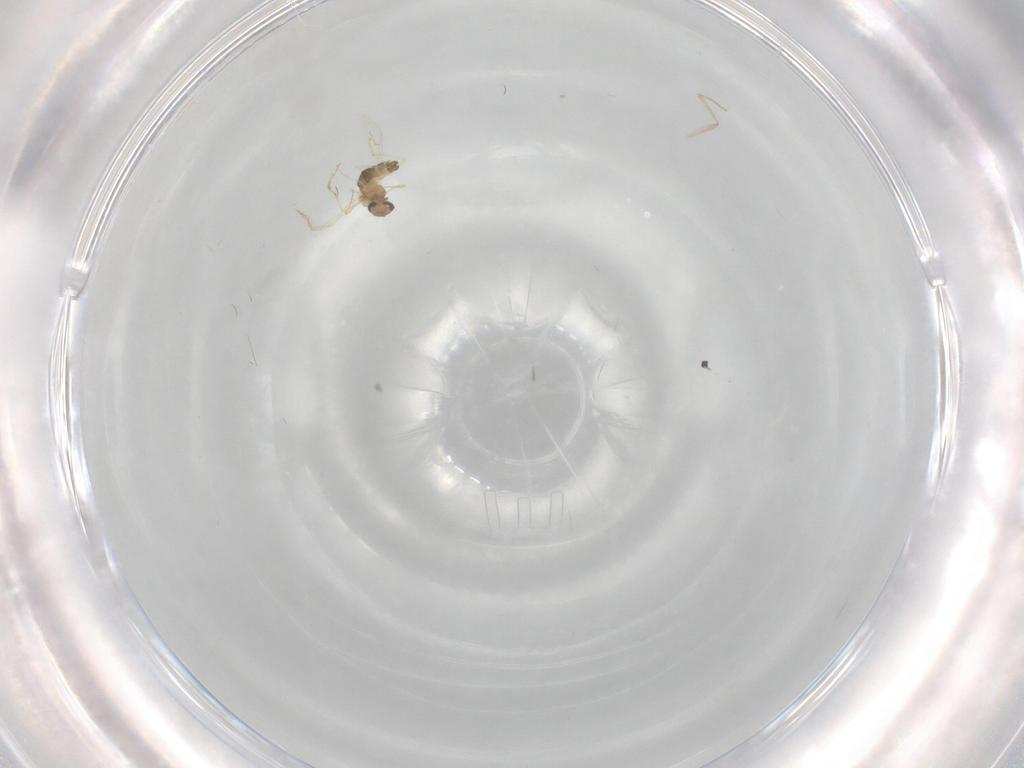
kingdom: Animalia
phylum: Arthropoda
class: Insecta
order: Diptera
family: Chironomidae
